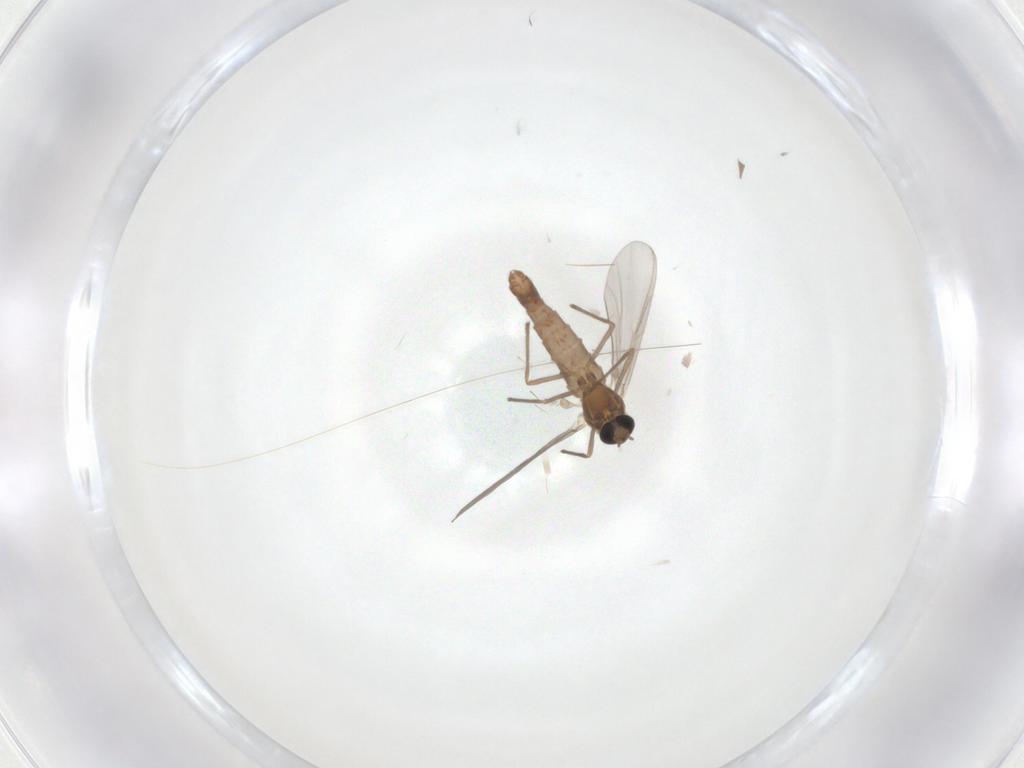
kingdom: Animalia
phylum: Arthropoda
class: Insecta
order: Diptera
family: Chironomidae
